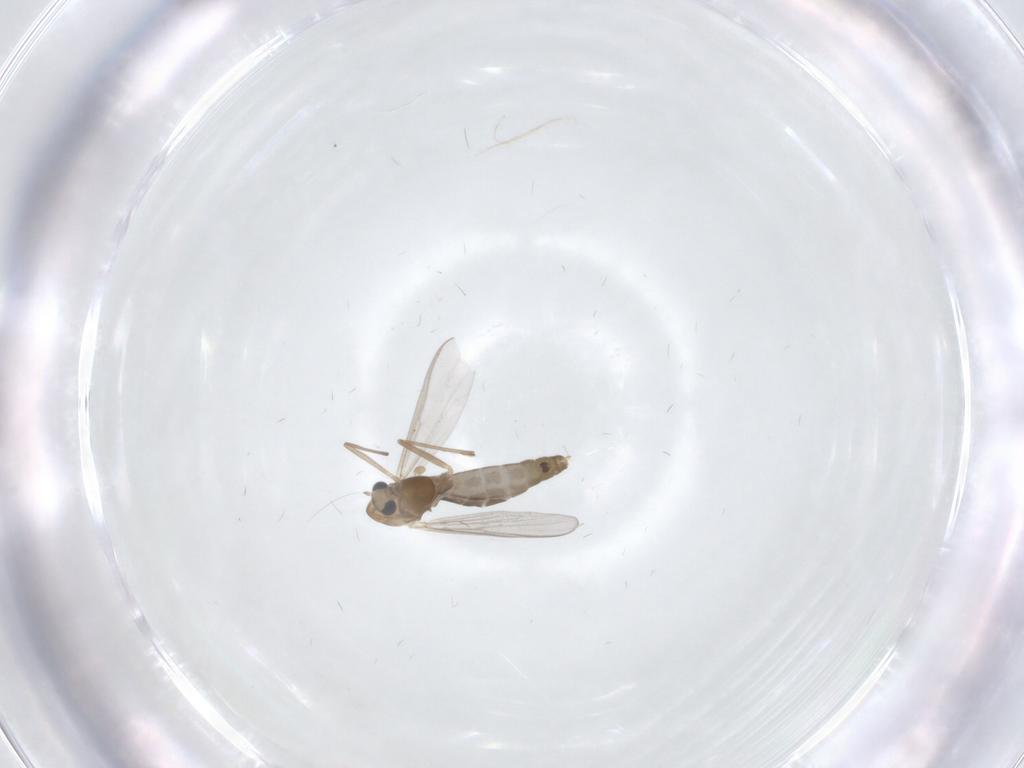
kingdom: Animalia
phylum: Arthropoda
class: Insecta
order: Diptera
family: Chironomidae
